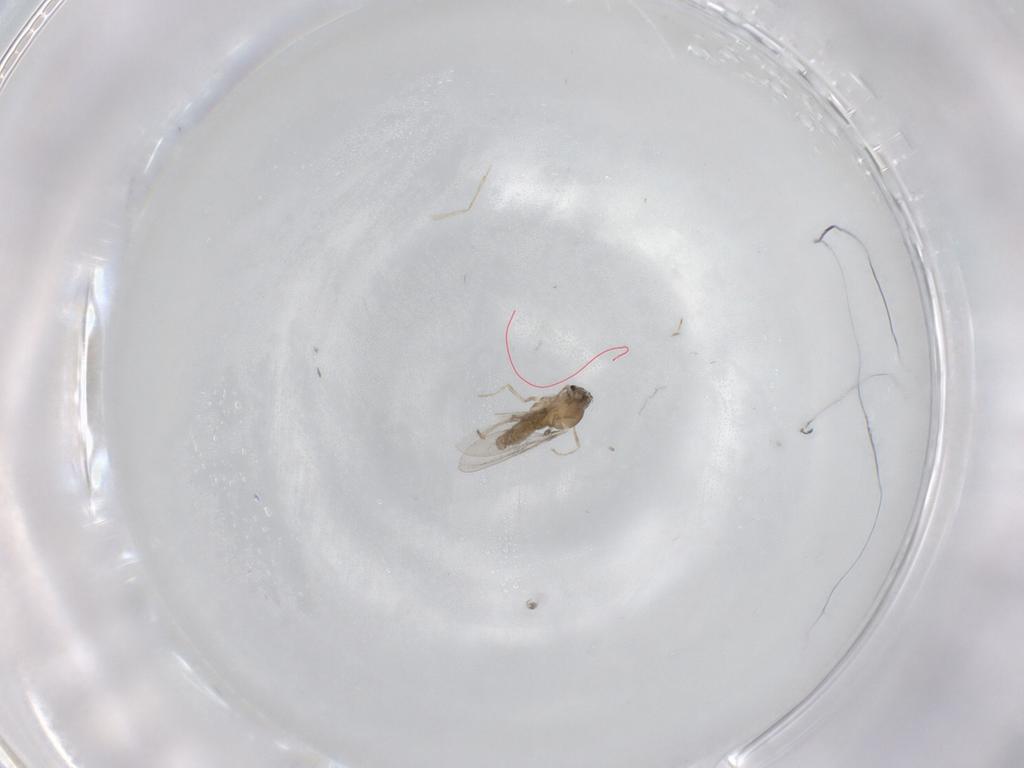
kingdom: Animalia
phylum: Arthropoda
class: Insecta
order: Diptera
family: Cecidomyiidae
